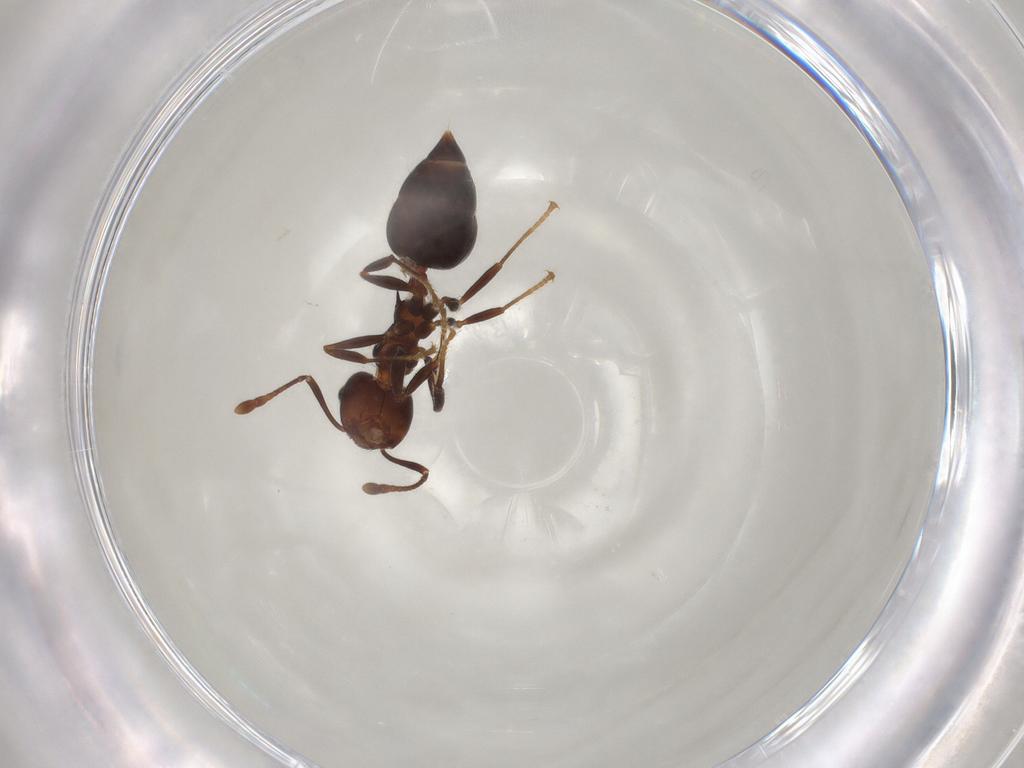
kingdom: Animalia
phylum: Arthropoda
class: Insecta
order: Hymenoptera
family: Formicidae
